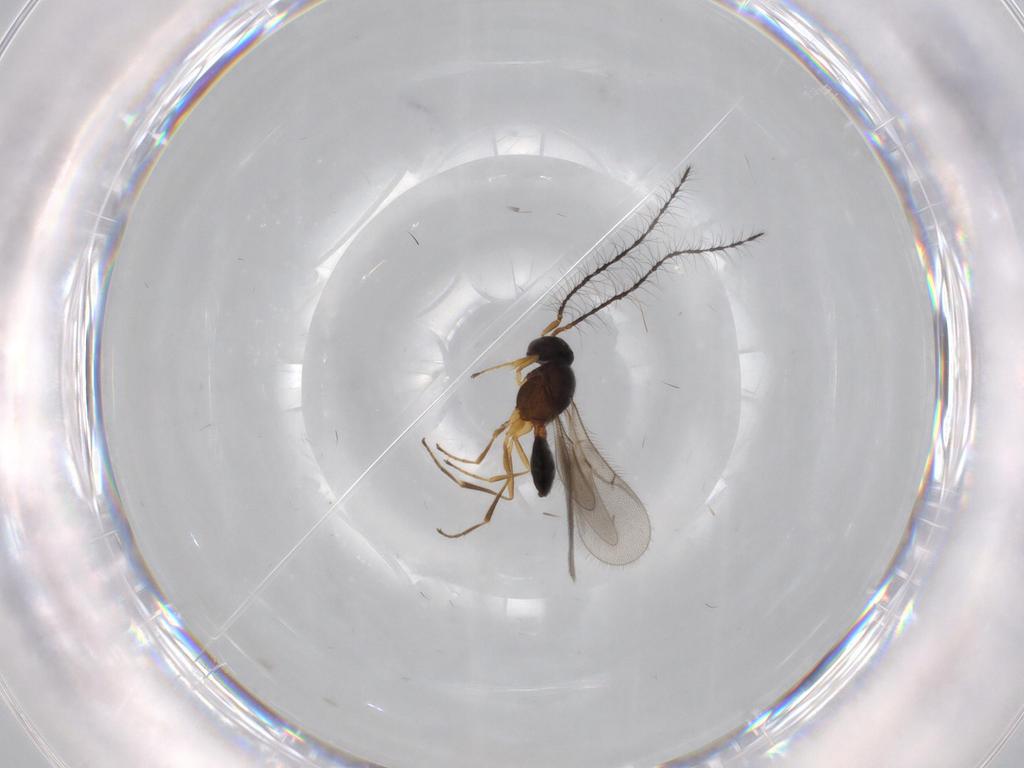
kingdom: Animalia
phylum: Arthropoda
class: Insecta
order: Hymenoptera
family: Scelionidae
